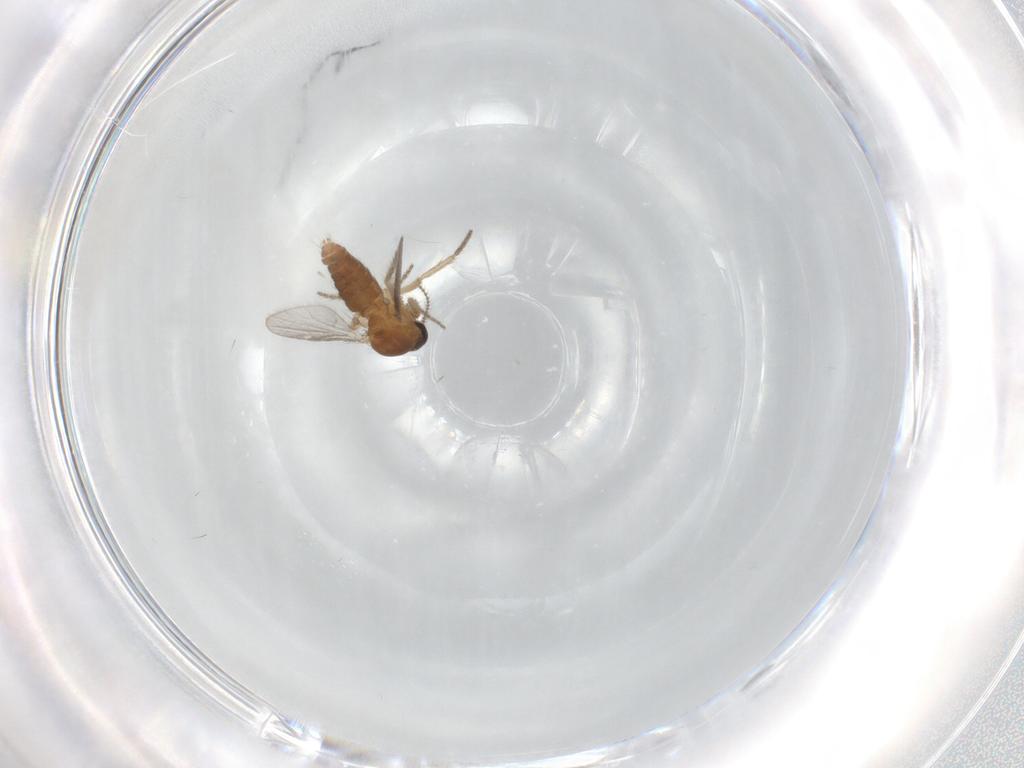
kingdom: Animalia
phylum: Arthropoda
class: Insecta
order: Diptera
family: Ceratopogonidae
